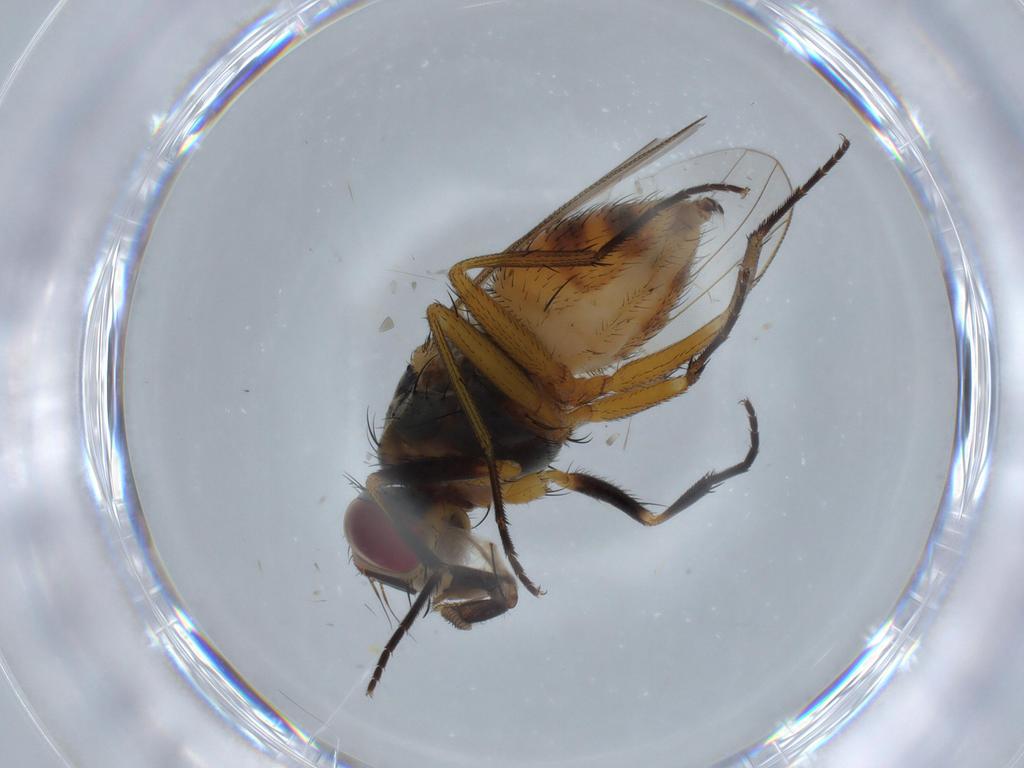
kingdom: Animalia
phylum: Arthropoda
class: Insecta
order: Diptera
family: Muscidae
